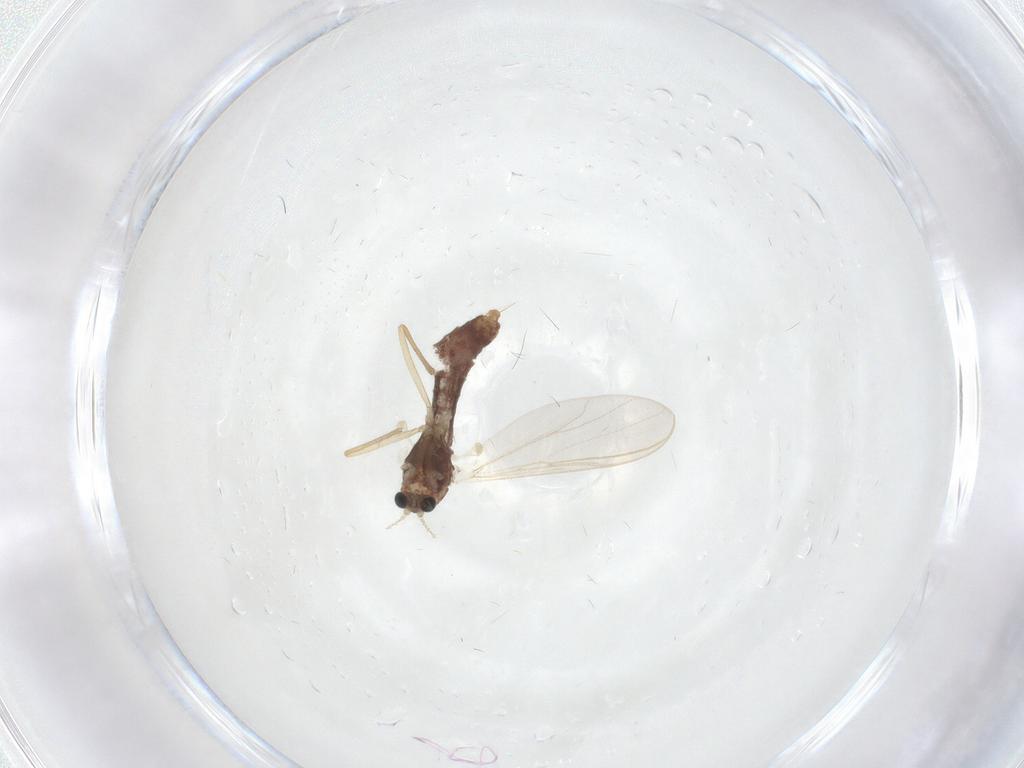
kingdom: Animalia
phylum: Arthropoda
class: Insecta
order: Diptera
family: Chironomidae
